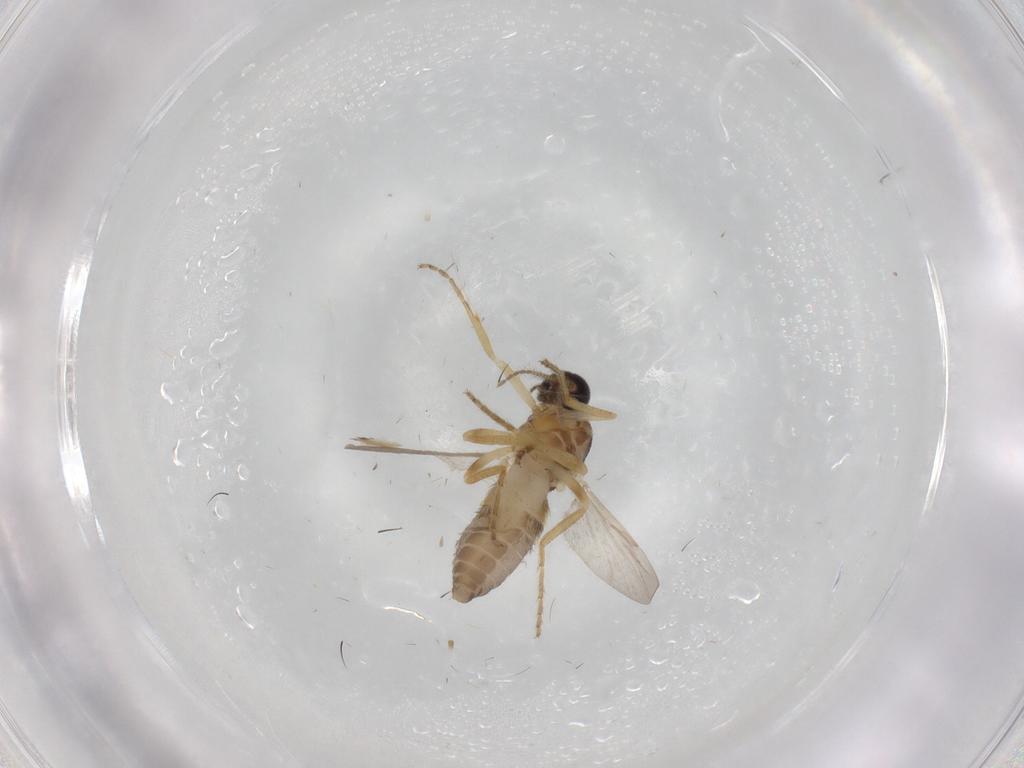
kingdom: Animalia
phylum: Arthropoda
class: Insecta
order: Diptera
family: Ceratopogonidae
